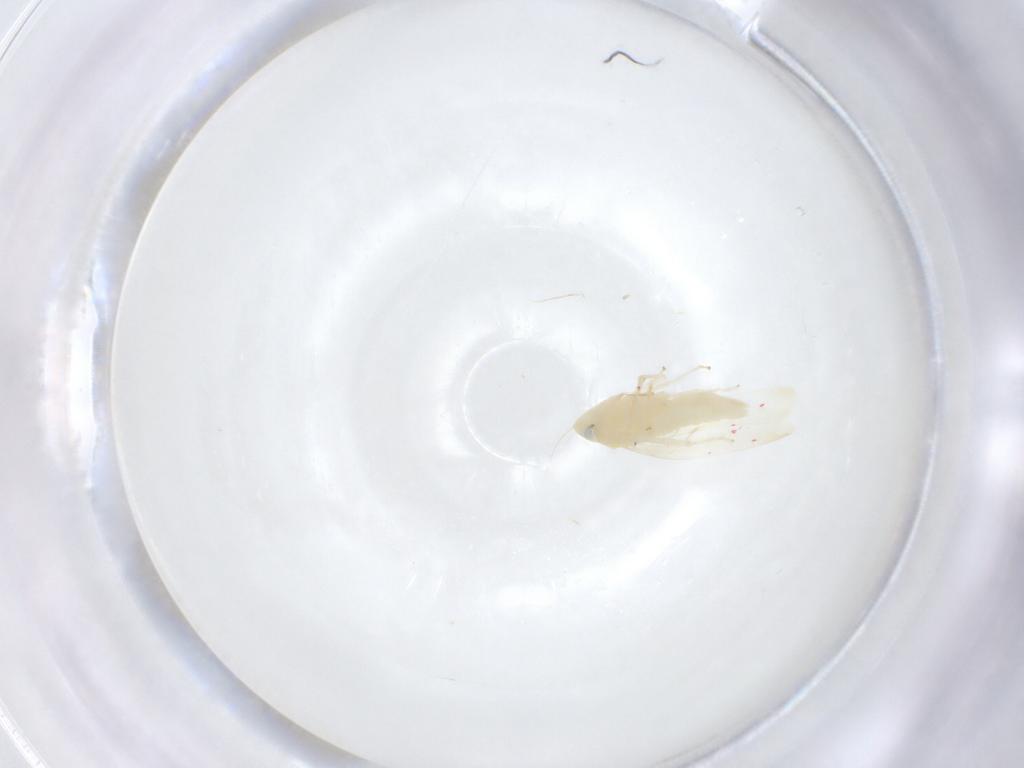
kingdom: Animalia
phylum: Arthropoda
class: Insecta
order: Hemiptera
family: Cicadellidae
